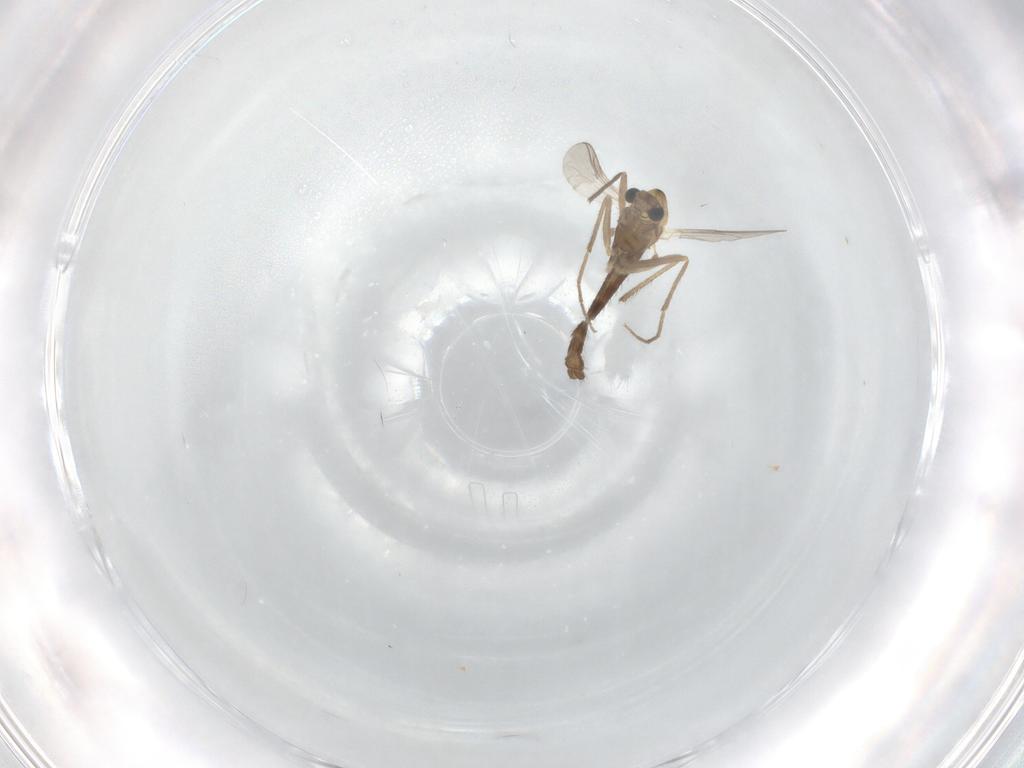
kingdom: Animalia
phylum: Arthropoda
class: Insecta
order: Diptera
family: Chironomidae
